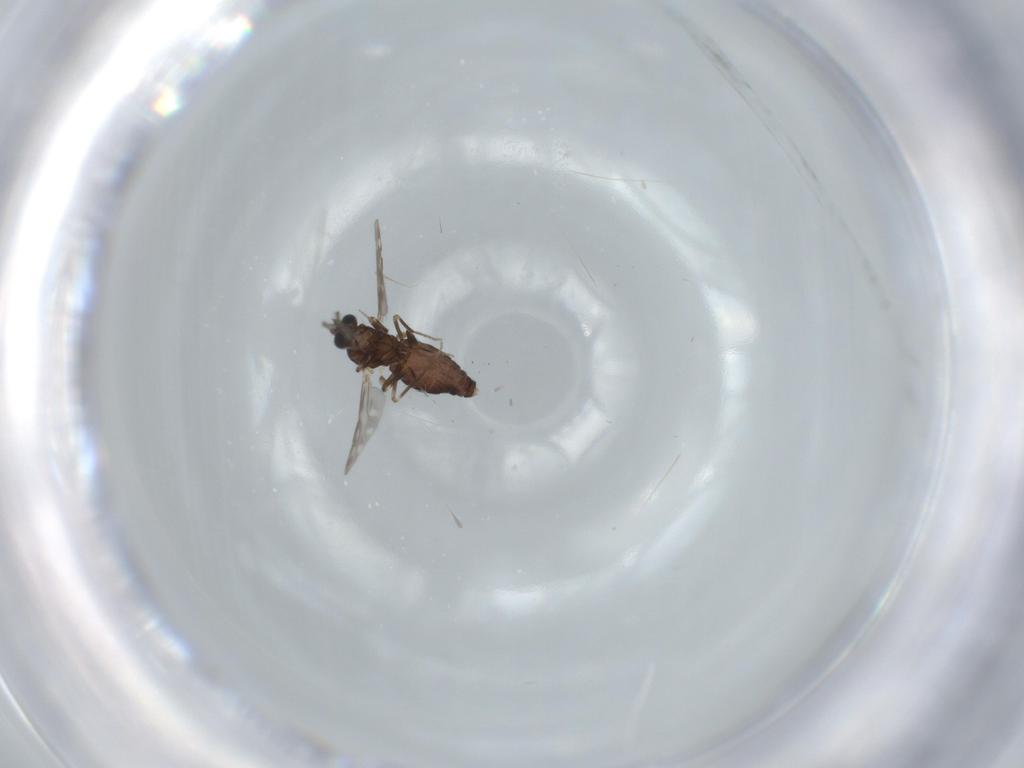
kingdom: Animalia
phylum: Arthropoda
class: Insecta
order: Diptera
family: Ceratopogonidae
